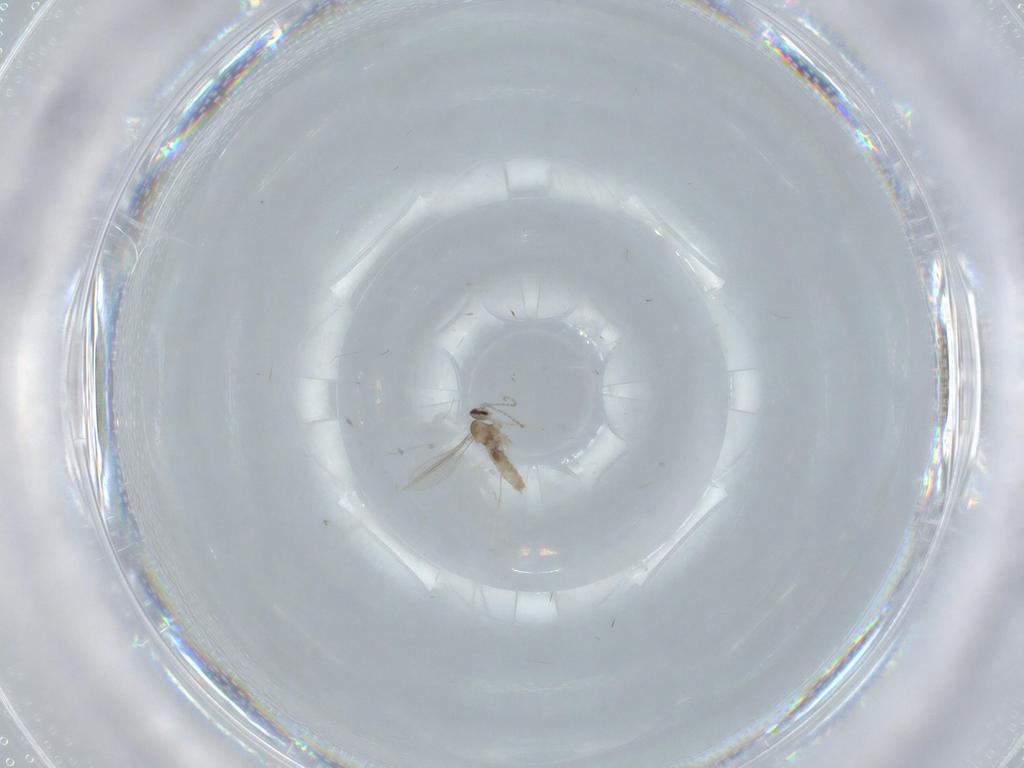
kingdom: Animalia
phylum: Arthropoda
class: Insecta
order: Diptera
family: Cecidomyiidae
